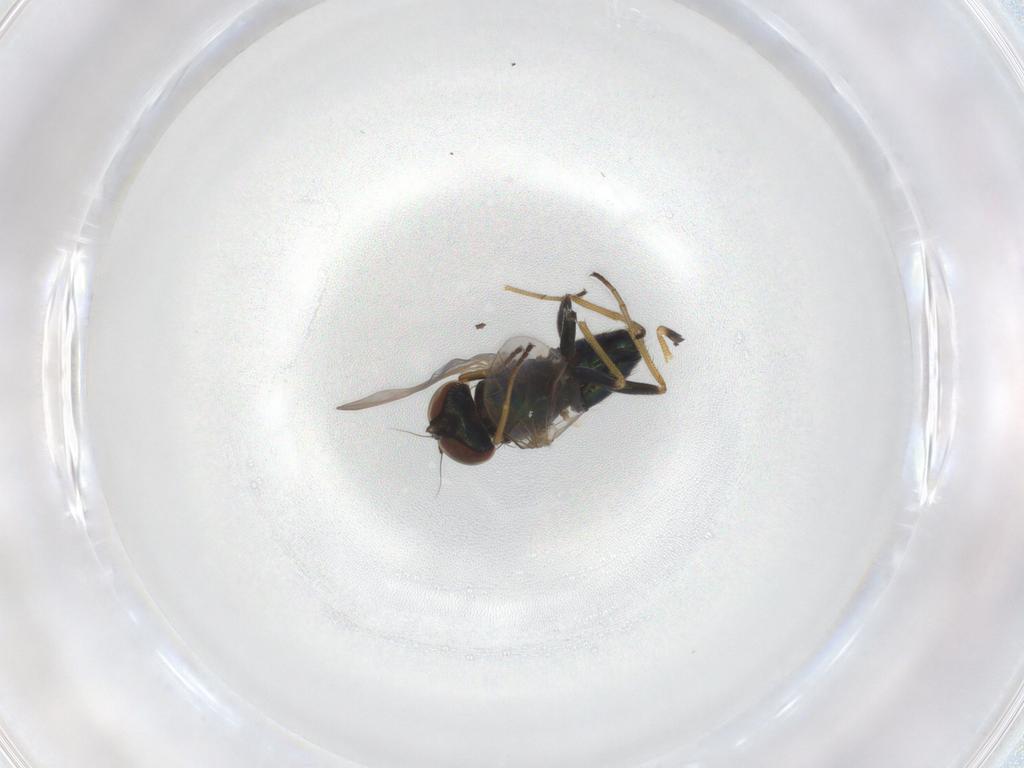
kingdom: Animalia
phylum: Arthropoda
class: Insecta
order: Diptera
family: Dolichopodidae
